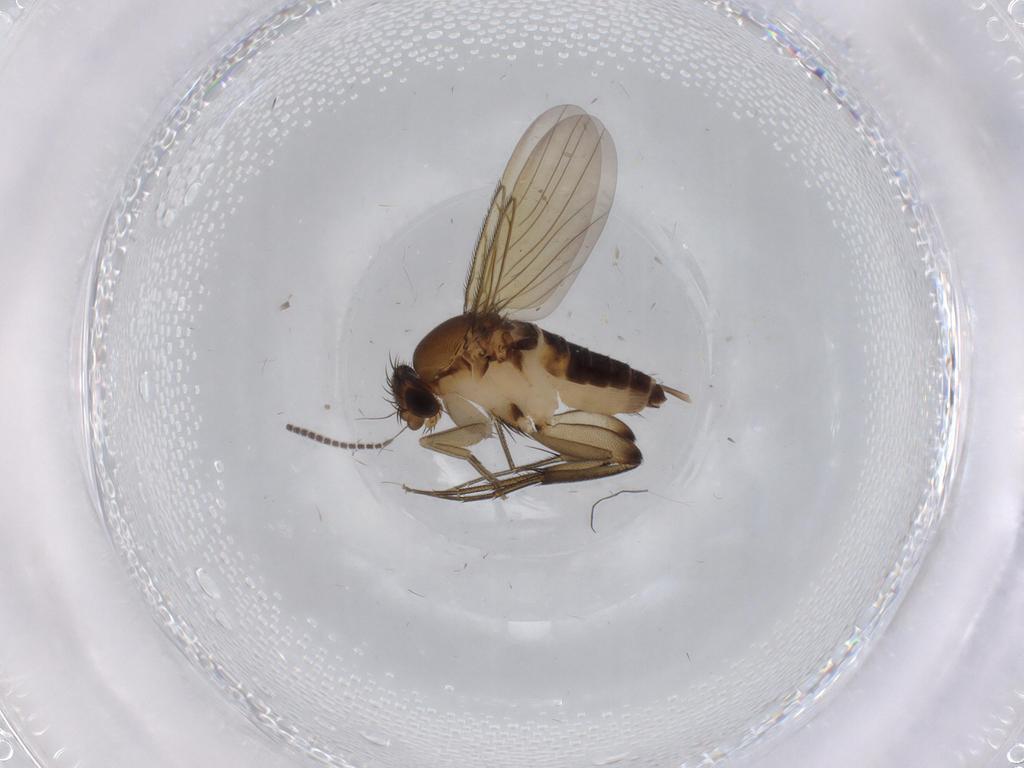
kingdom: Animalia
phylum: Arthropoda
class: Insecta
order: Diptera
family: Phoridae
